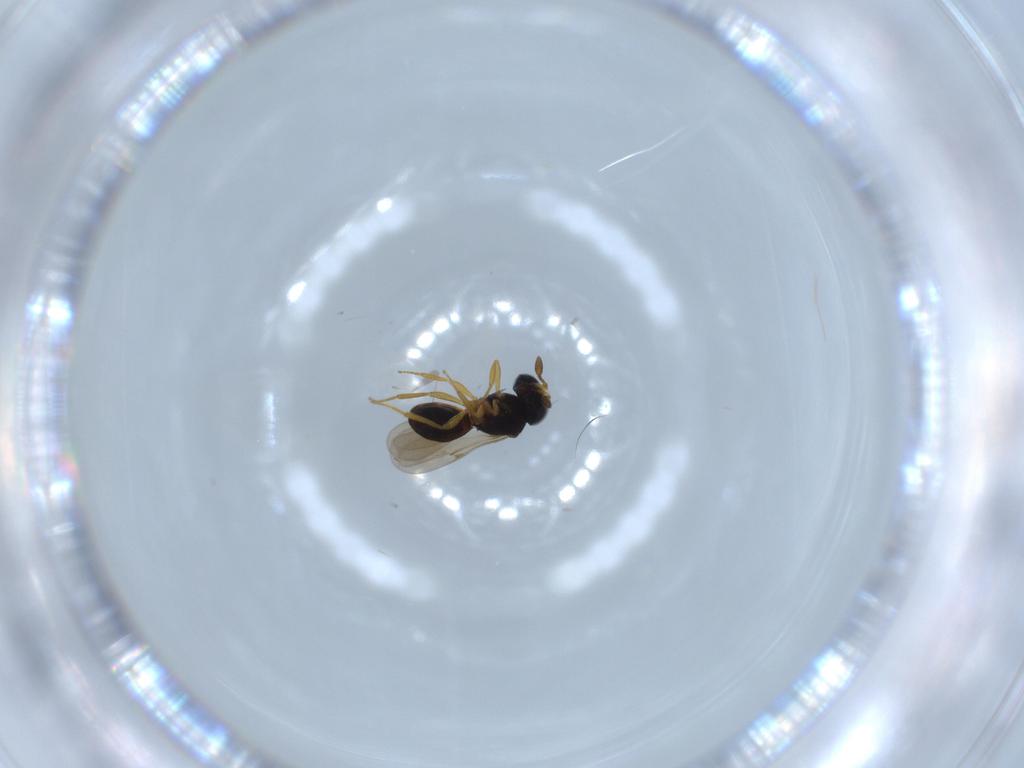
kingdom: Animalia
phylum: Arthropoda
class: Insecta
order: Hymenoptera
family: Scelionidae
